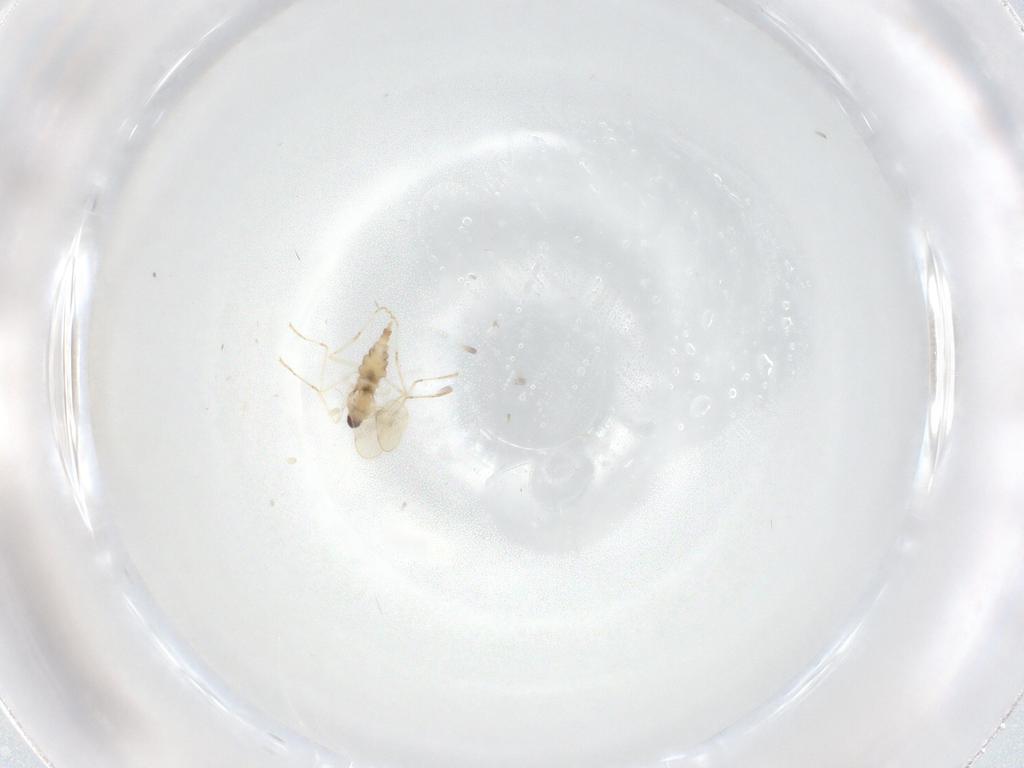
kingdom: Animalia
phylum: Arthropoda
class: Insecta
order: Diptera
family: Cecidomyiidae
